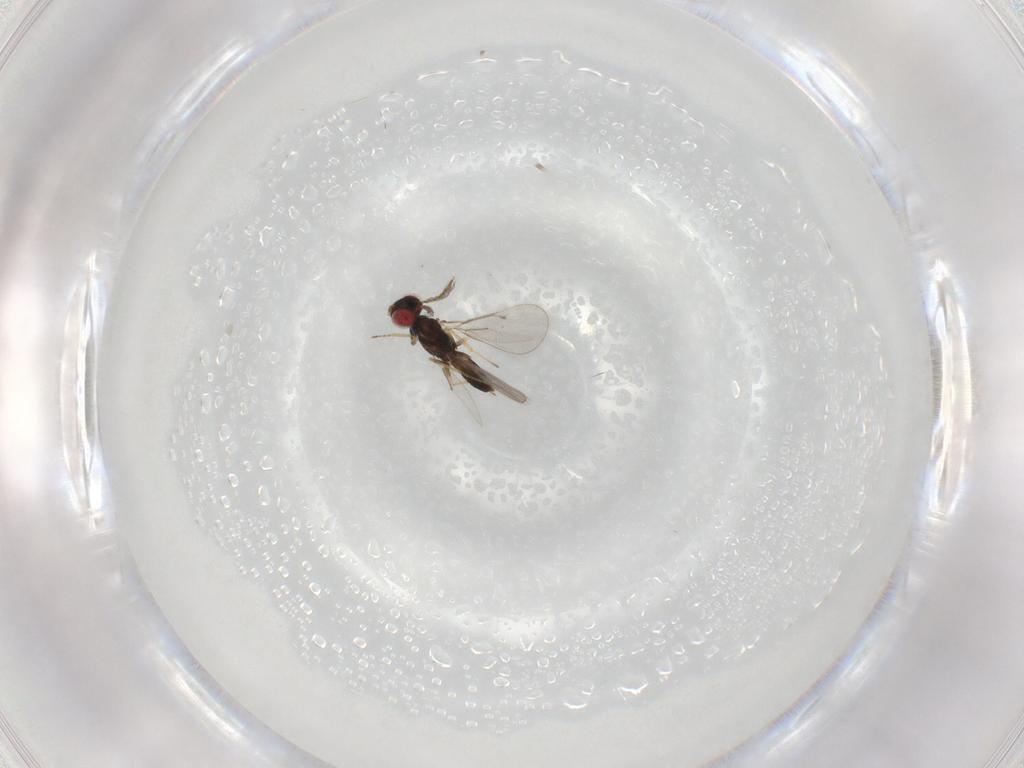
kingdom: Animalia
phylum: Arthropoda
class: Insecta
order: Hymenoptera
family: Eulophidae
